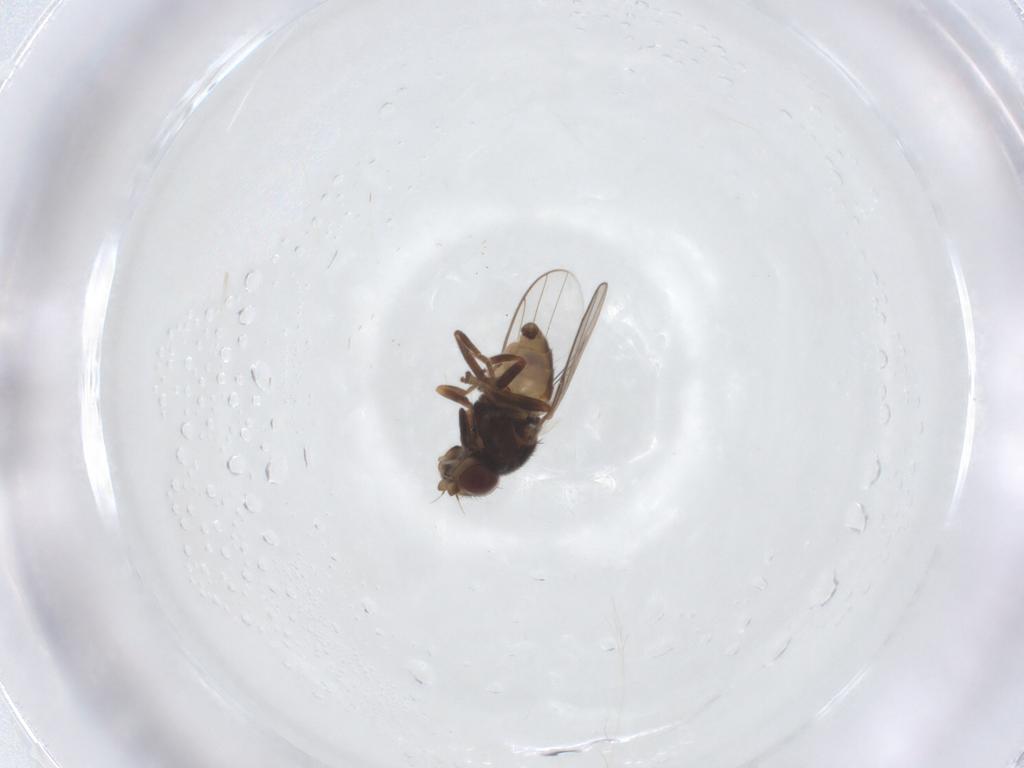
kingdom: Animalia
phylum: Arthropoda
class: Insecta
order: Diptera
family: Chloropidae
